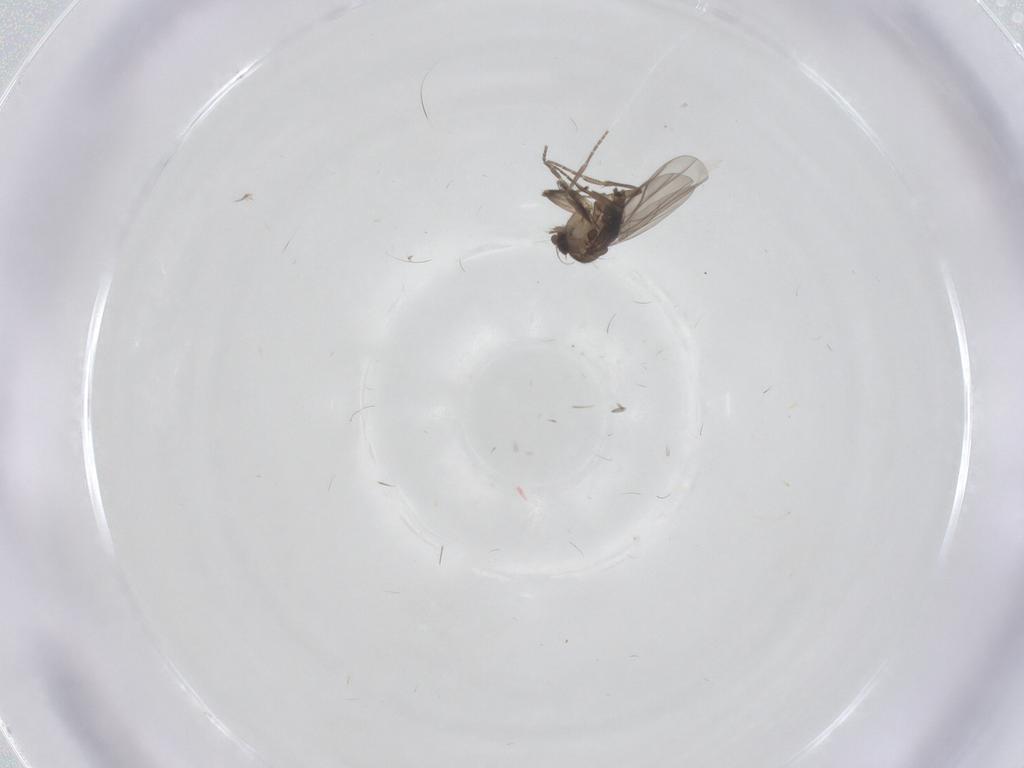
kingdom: Animalia
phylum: Arthropoda
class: Insecta
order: Diptera
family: Cecidomyiidae
